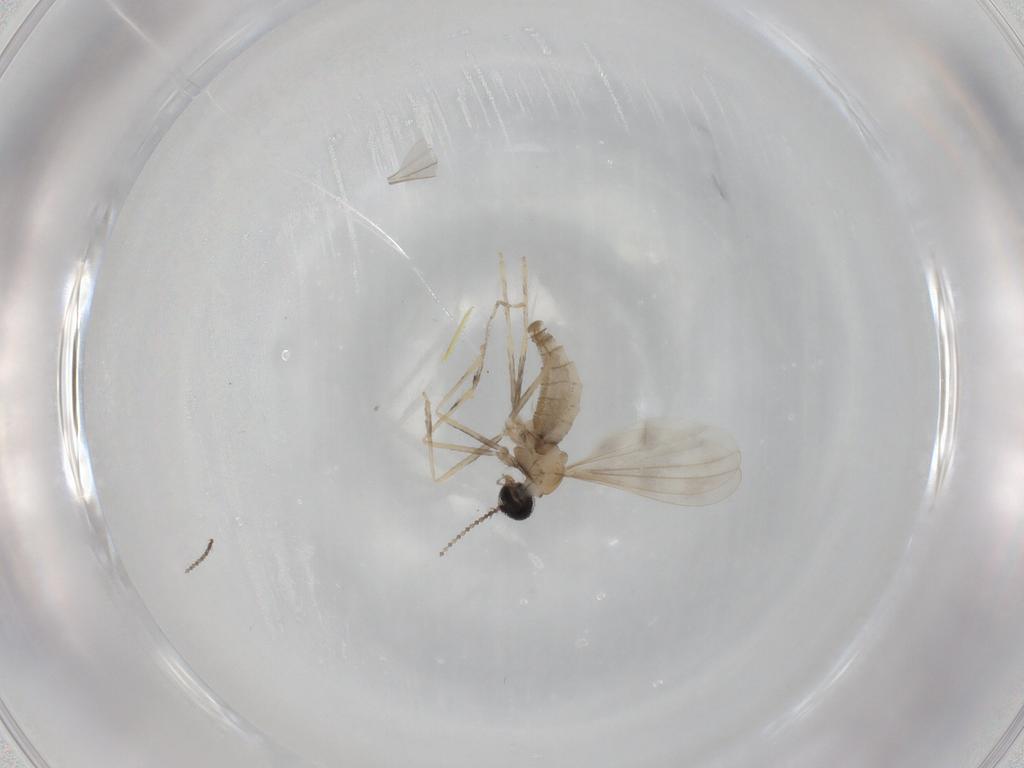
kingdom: Animalia
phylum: Arthropoda
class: Insecta
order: Diptera
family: Cecidomyiidae
